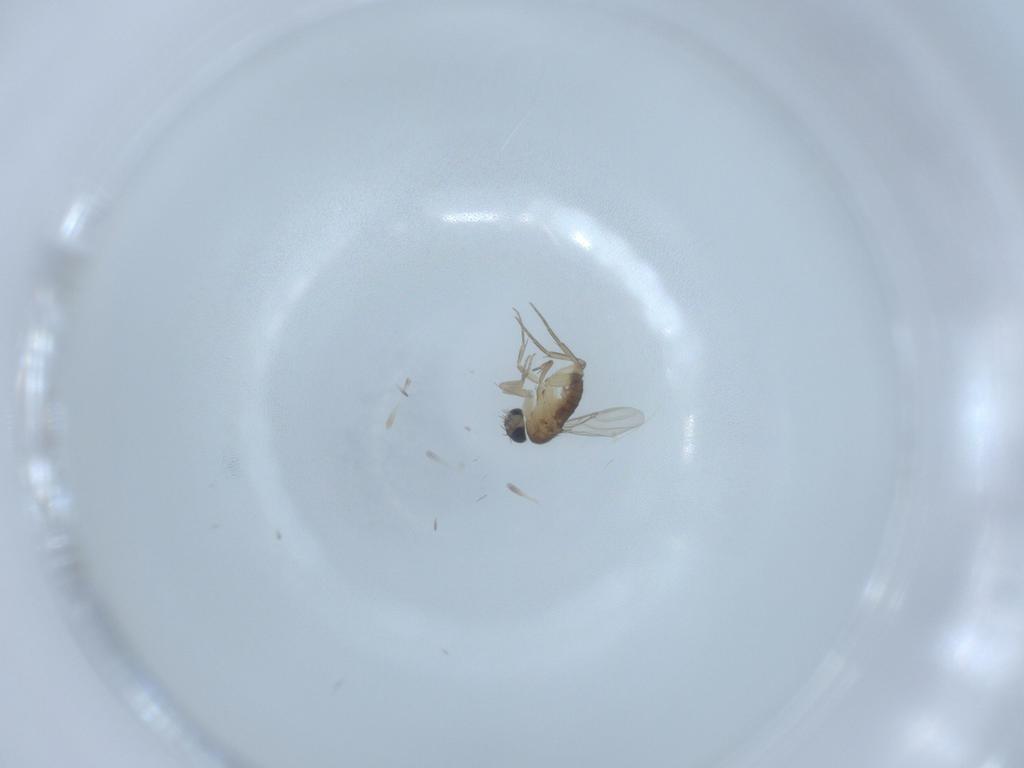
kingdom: Animalia
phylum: Arthropoda
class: Insecta
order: Diptera
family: Phoridae
